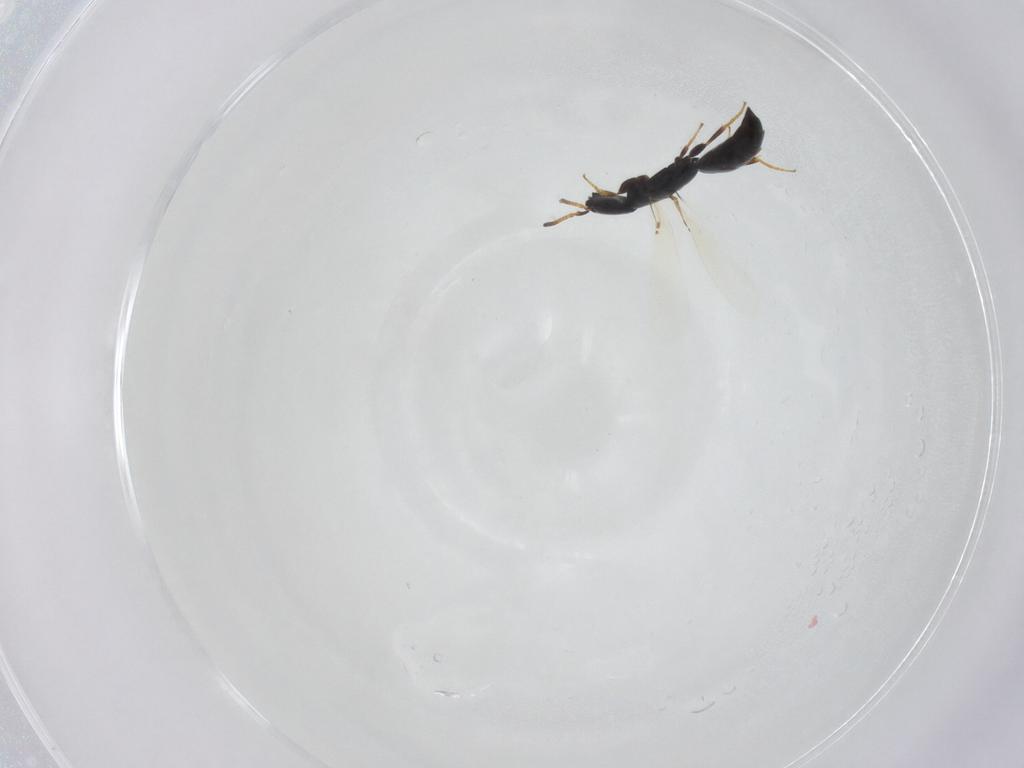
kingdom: Animalia
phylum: Arthropoda
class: Insecta
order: Hymenoptera
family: Bethylidae
